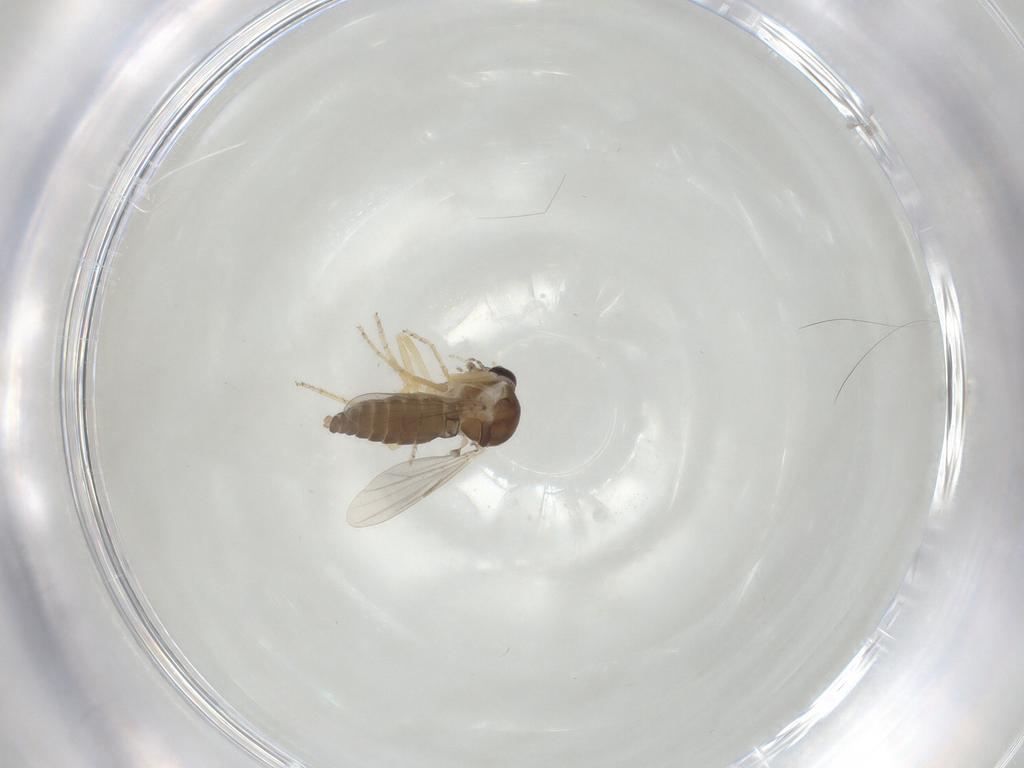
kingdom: Animalia
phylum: Arthropoda
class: Insecta
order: Diptera
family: Ceratopogonidae
